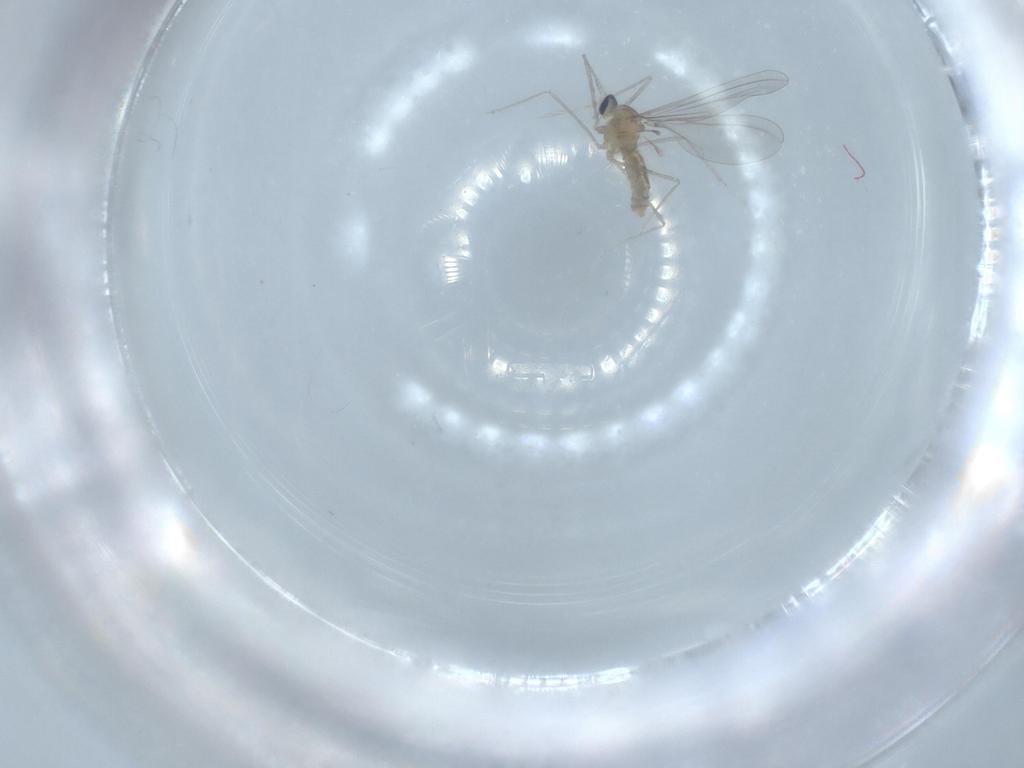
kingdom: Animalia
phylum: Arthropoda
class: Insecta
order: Diptera
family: Cecidomyiidae
